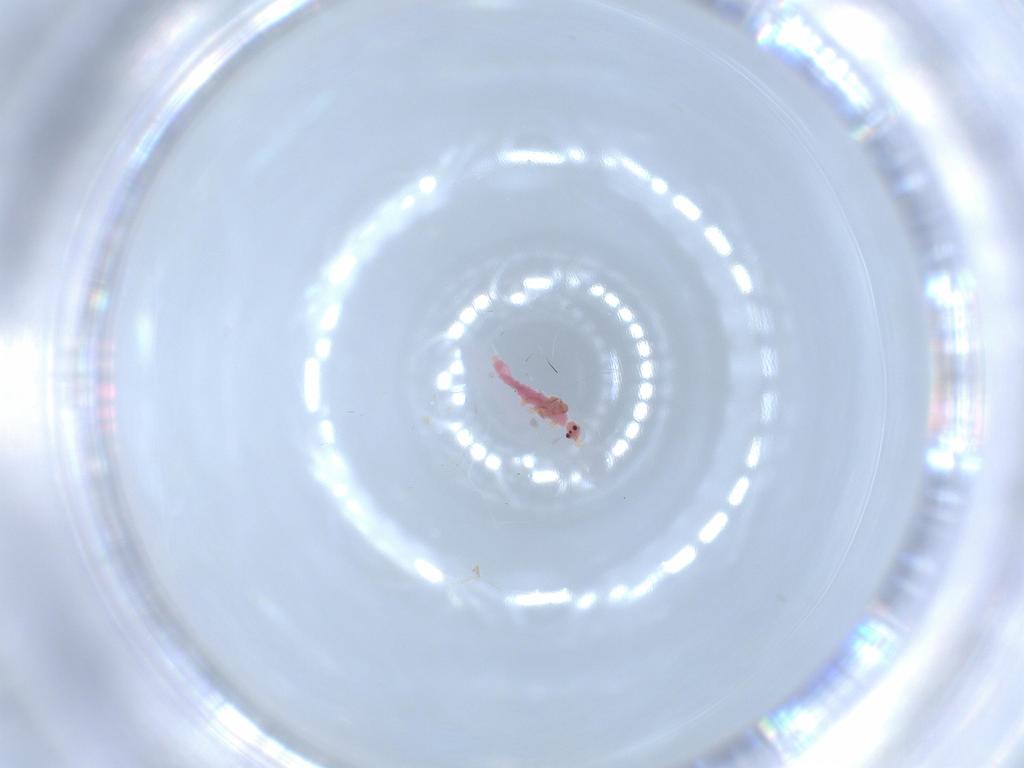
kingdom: Animalia
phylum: Arthropoda
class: Insecta
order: Hemiptera
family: Pseudococcidae
